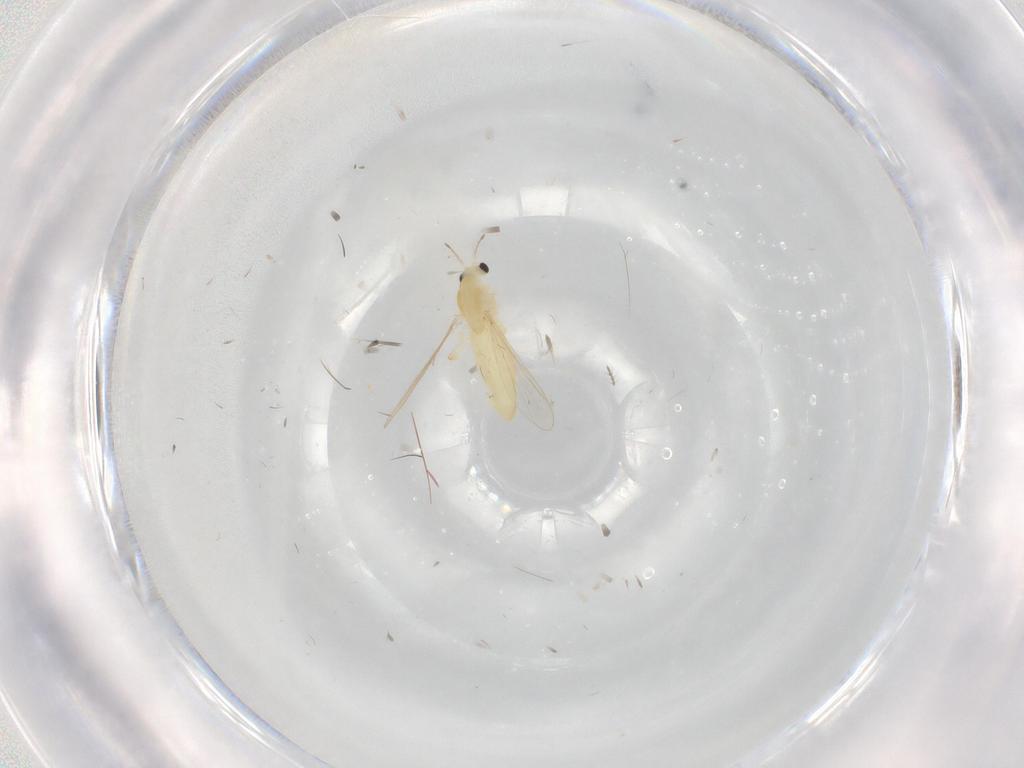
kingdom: Animalia
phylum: Arthropoda
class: Insecta
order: Diptera
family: Chironomidae
